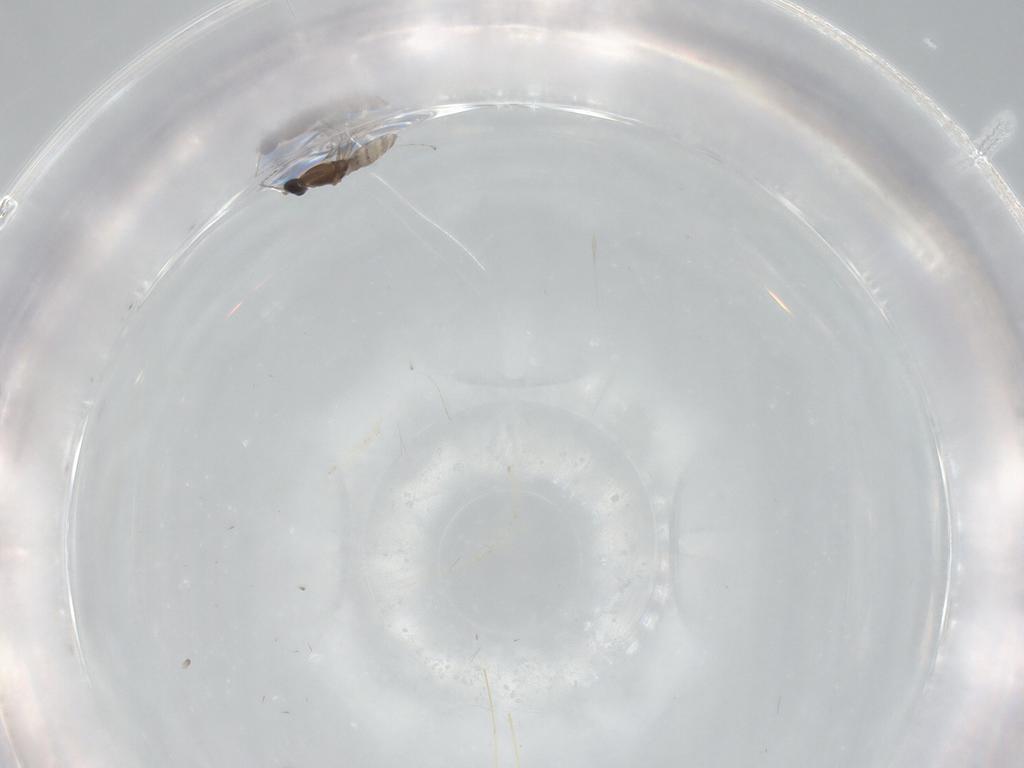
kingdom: Animalia
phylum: Arthropoda
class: Insecta
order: Diptera
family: Cecidomyiidae
